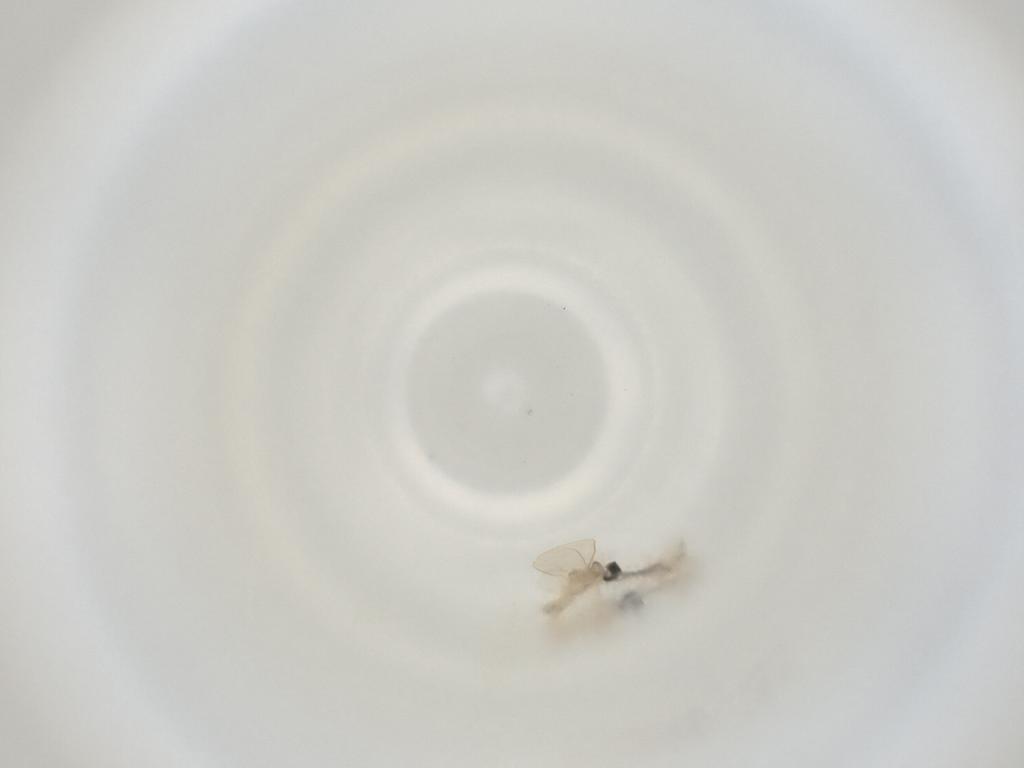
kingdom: Animalia
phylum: Arthropoda
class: Insecta
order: Diptera
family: Cecidomyiidae
